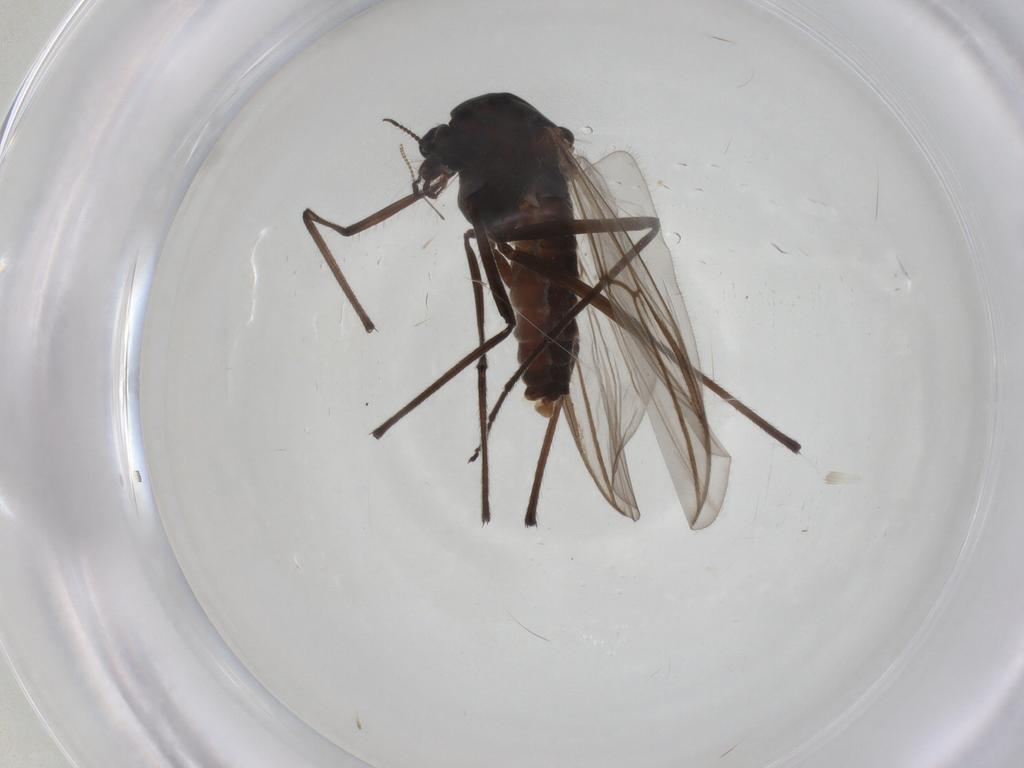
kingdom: Animalia
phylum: Arthropoda
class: Insecta
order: Diptera
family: Chironomidae
